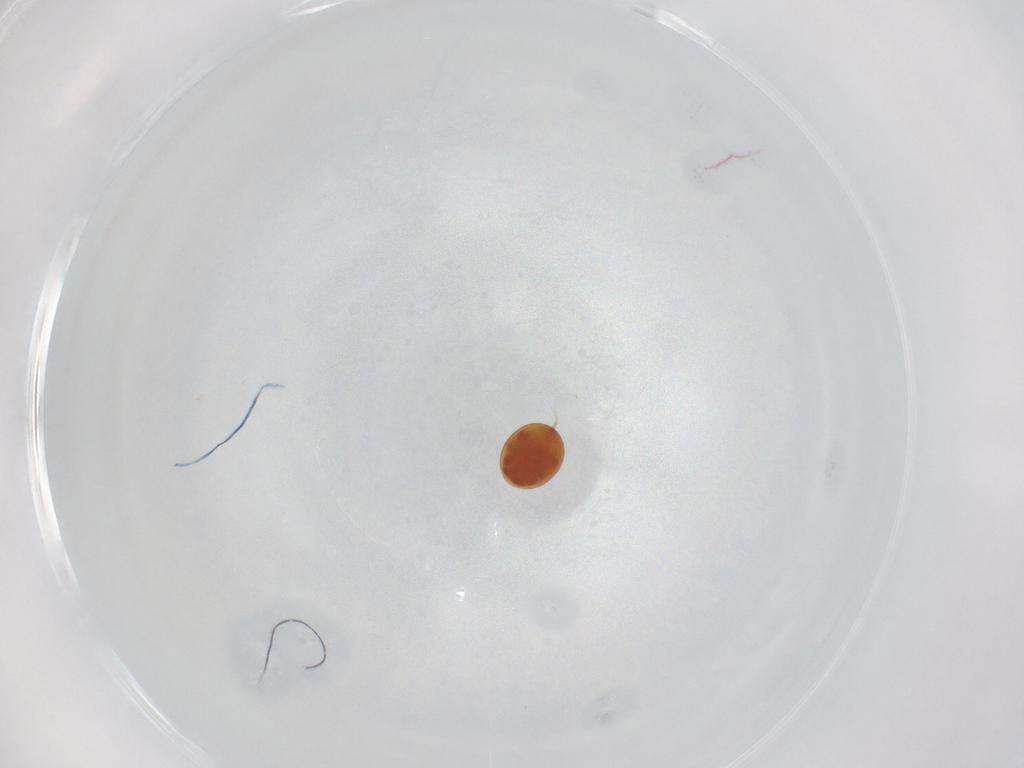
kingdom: Animalia
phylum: Arthropoda
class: Arachnida
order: Mesostigmata
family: Uropodidae
